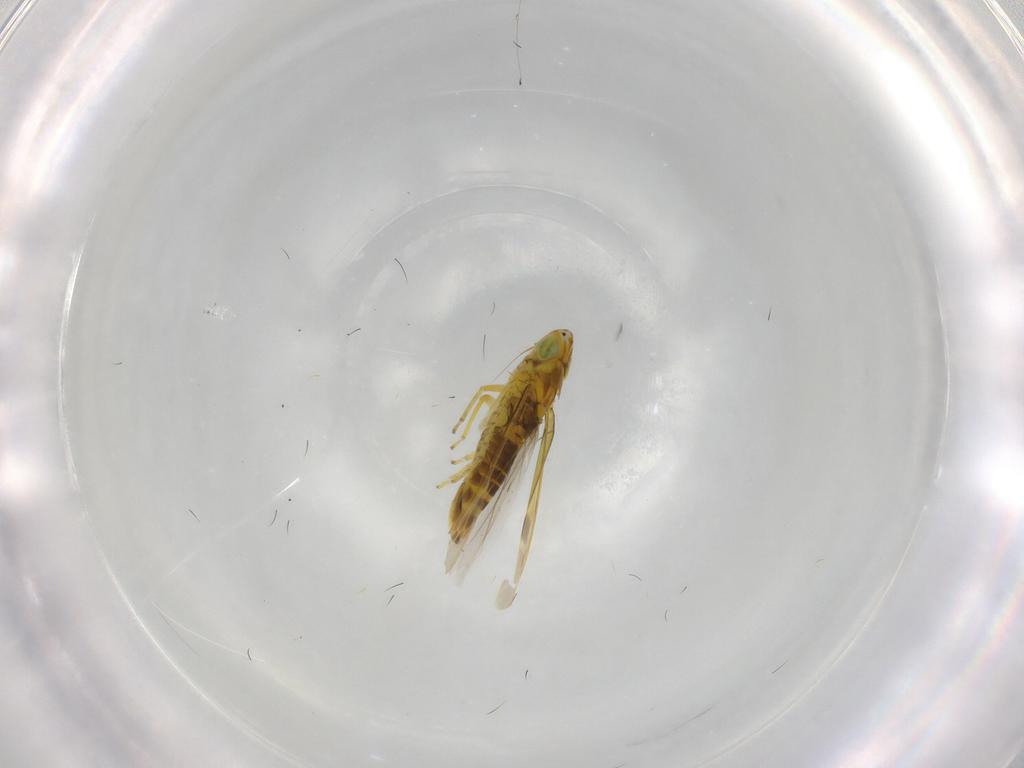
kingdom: Animalia
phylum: Arthropoda
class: Insecta
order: Hemiptera
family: Cicadellidae
